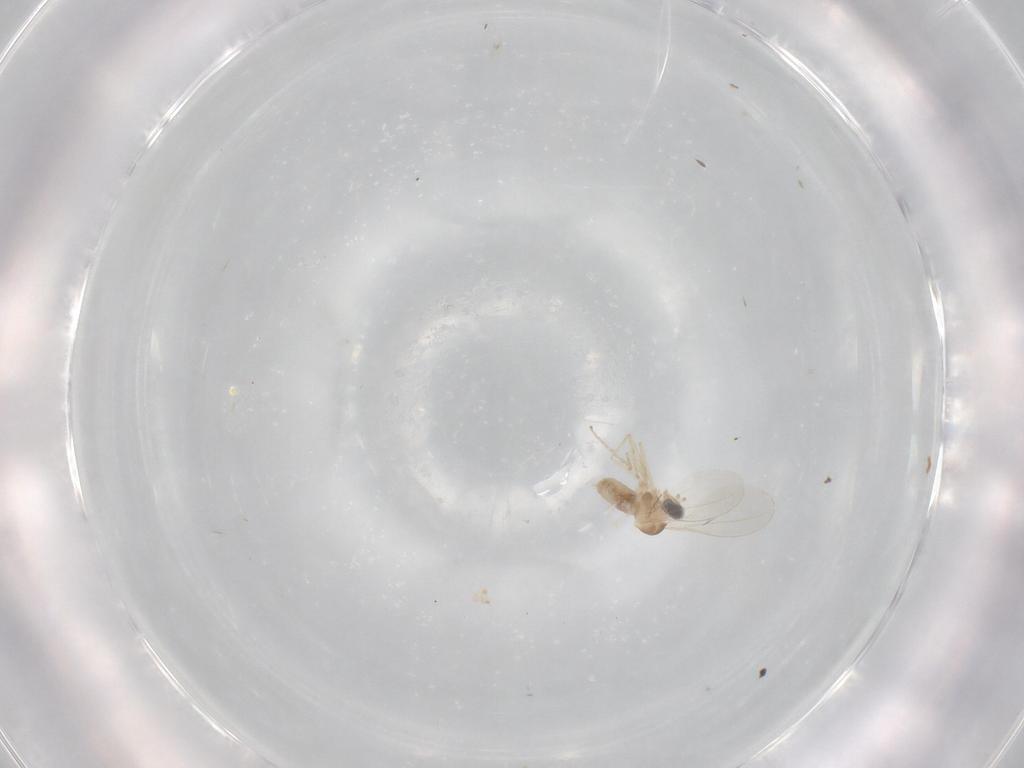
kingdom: Animalia
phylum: Arthropoda
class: Insecta
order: Diptera
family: Cecidomyiidae
